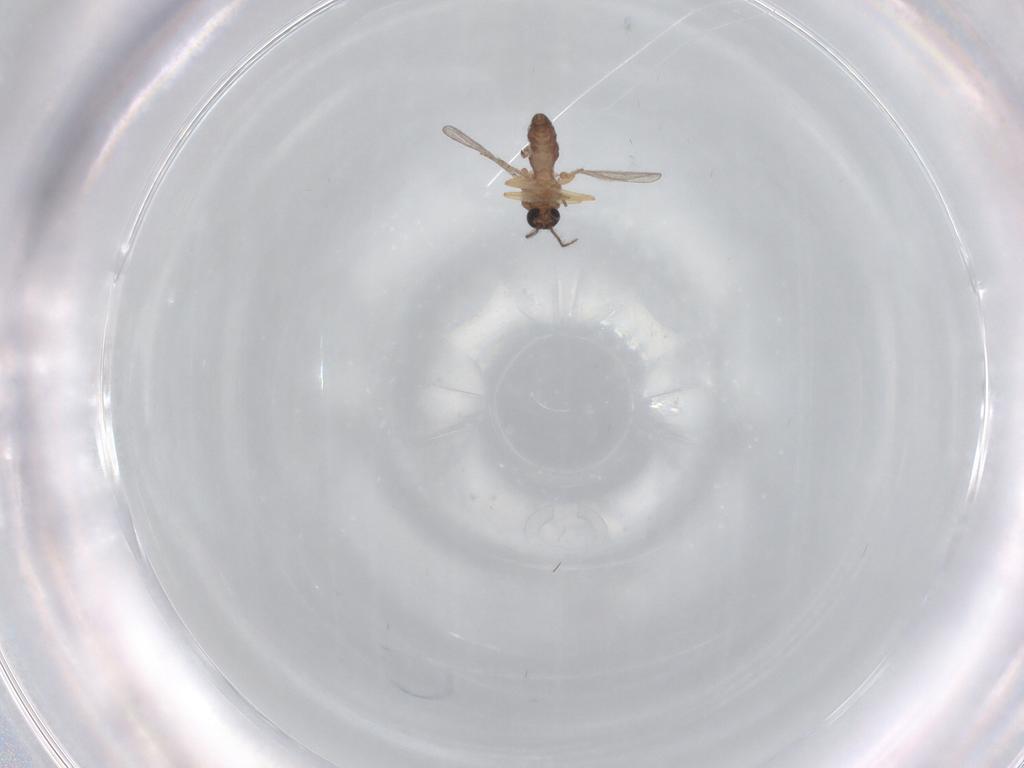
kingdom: Animalia
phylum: Arthropoda
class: Insecta
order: Diptera
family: Ceratopogonidae
